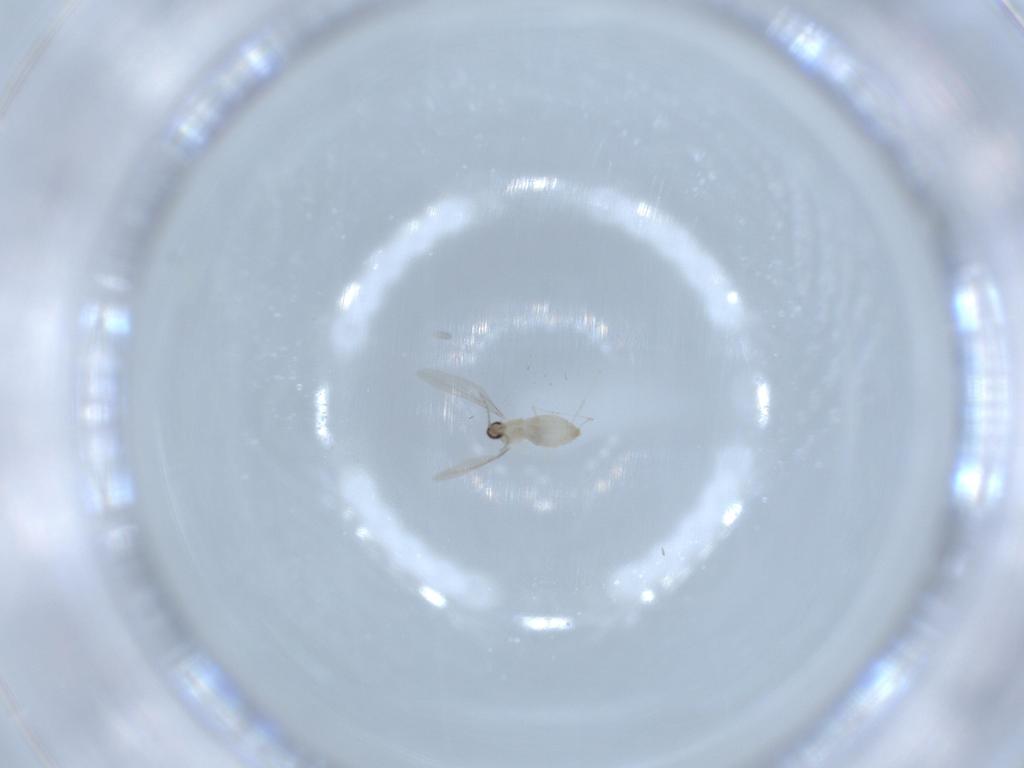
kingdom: Animalia
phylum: Arthropoda
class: Insecta
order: Diptera
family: Cecidomyiidae
